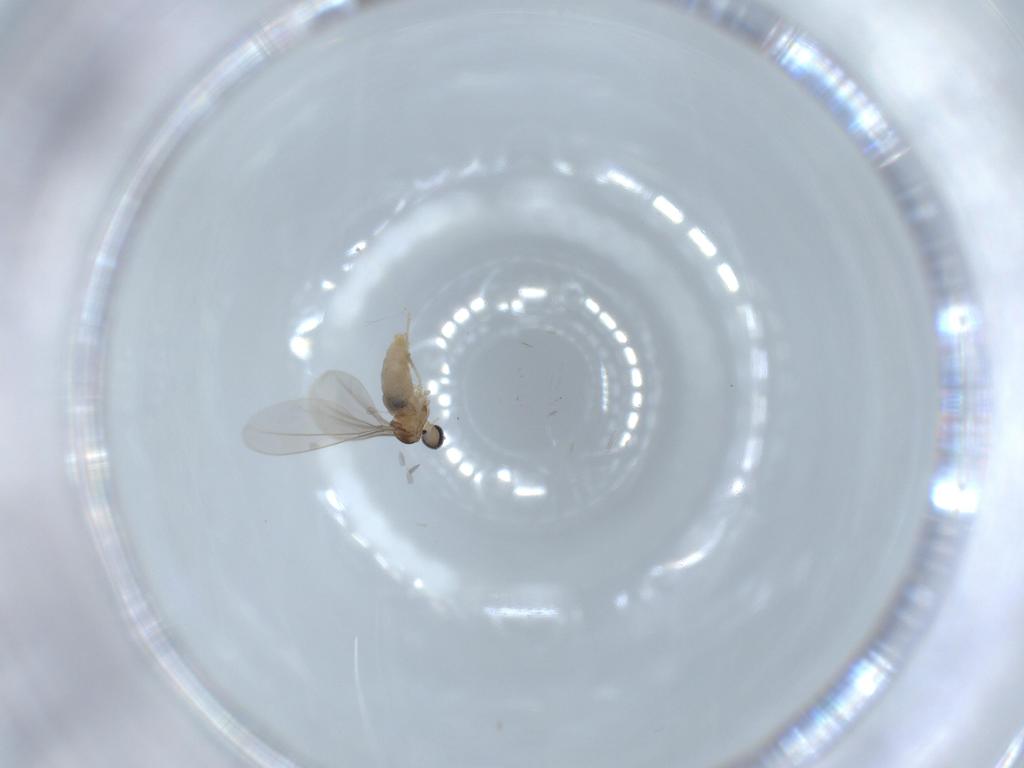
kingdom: Animalia
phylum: Arthropoda
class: Insecta
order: Diptera
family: Cecidomyiidae
